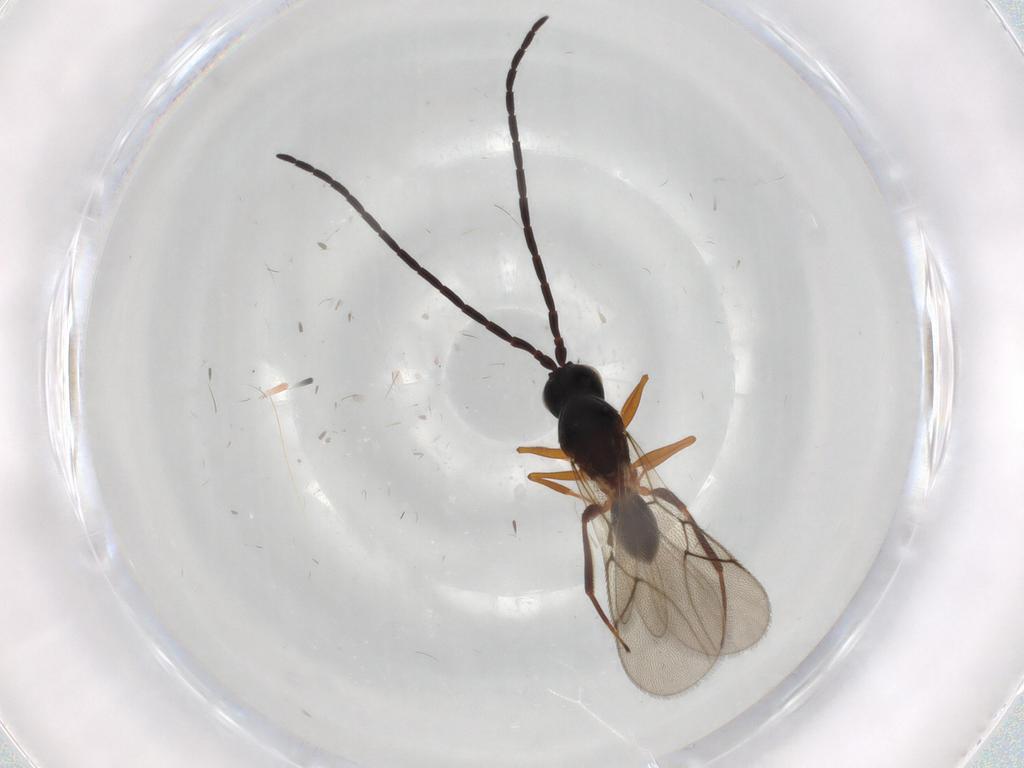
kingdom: Animalia
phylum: Arthropoda
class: Insecta
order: Hymenoptera
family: Figitidae
